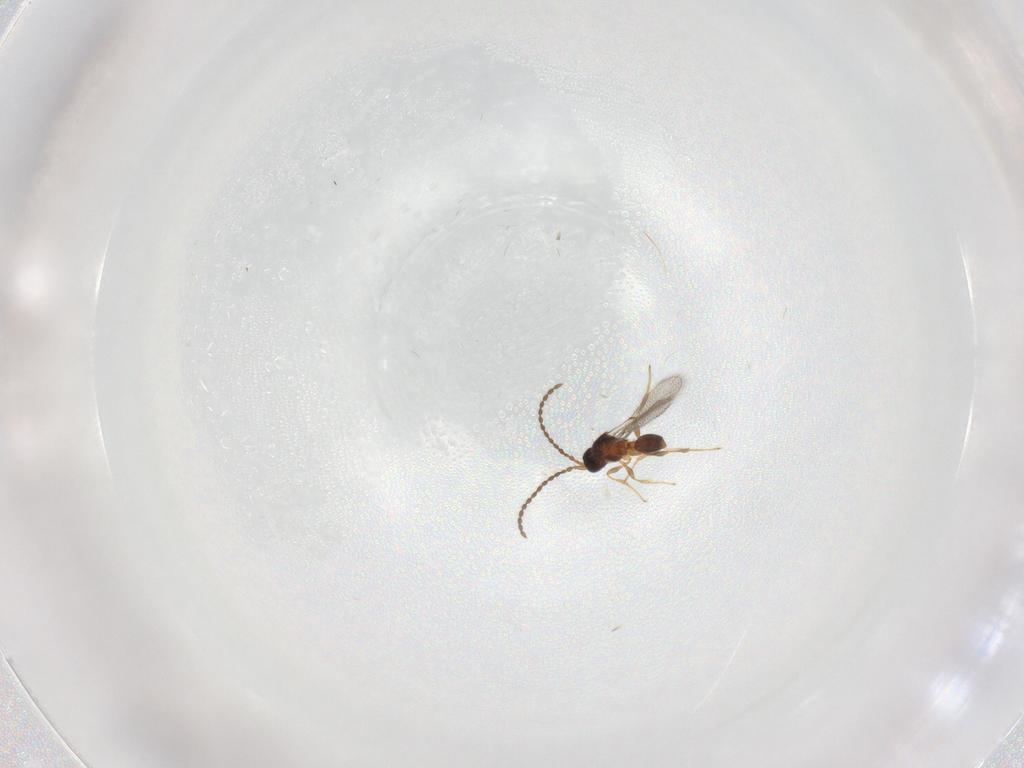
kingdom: Animalia
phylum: Arthropoda
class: Insecta
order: Hymenoptera
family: Diapriidae
